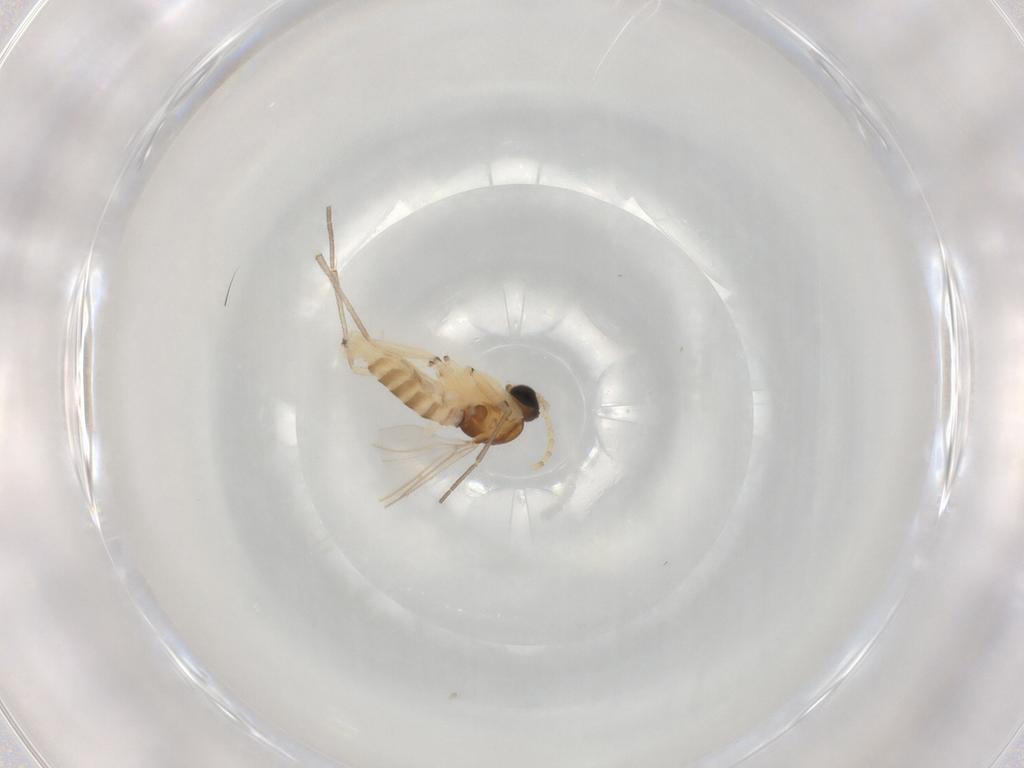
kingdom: Animalia
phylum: Arthropoda
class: Insecta
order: Diptera
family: Sciaridae
